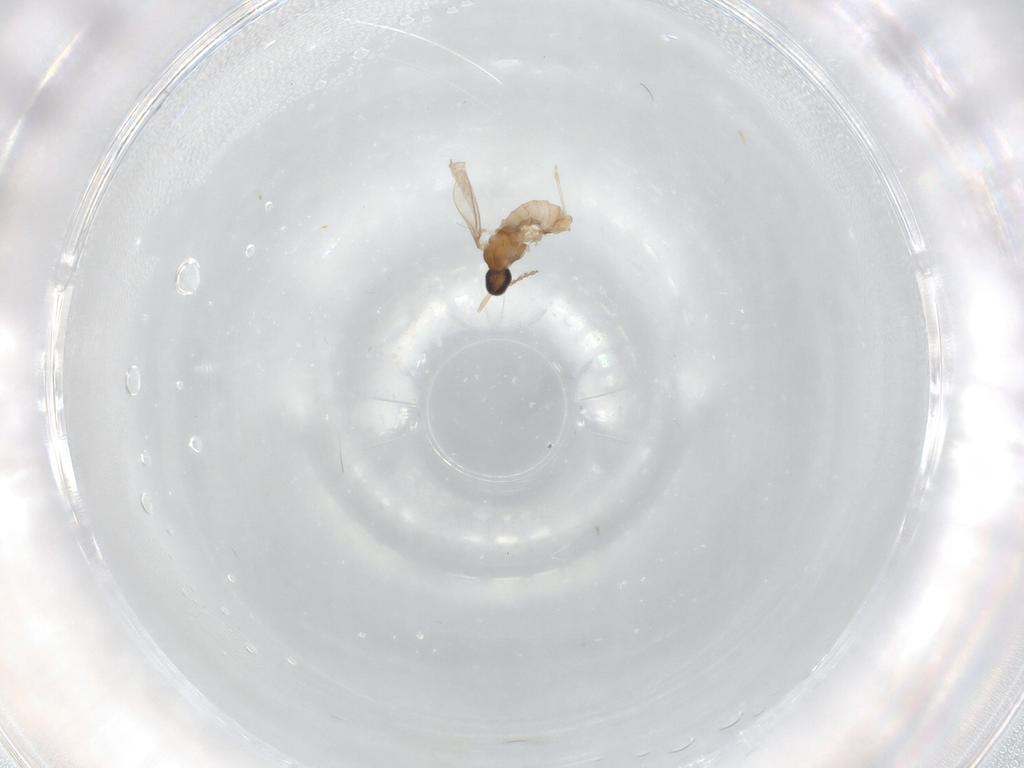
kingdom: Animalia
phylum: Arthropoda
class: Insecta
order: Diptera
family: Cecidomyiidae
